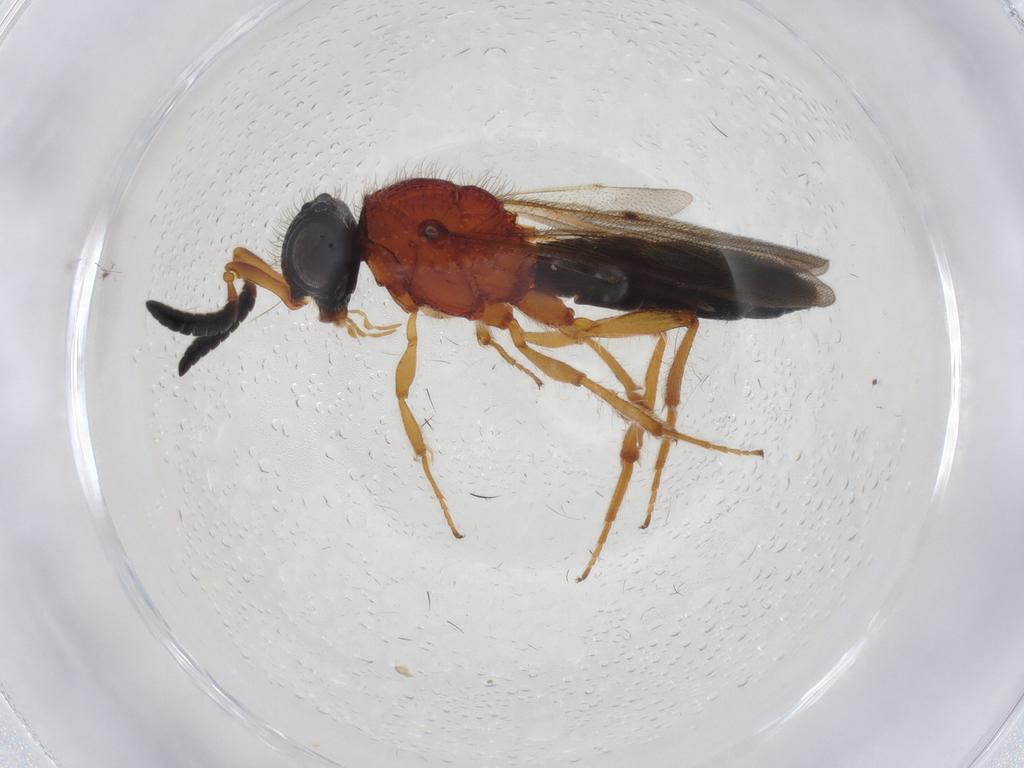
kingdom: Animalia
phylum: Arthropoda
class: Insecta
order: Hymenoptera
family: Scelionidae
